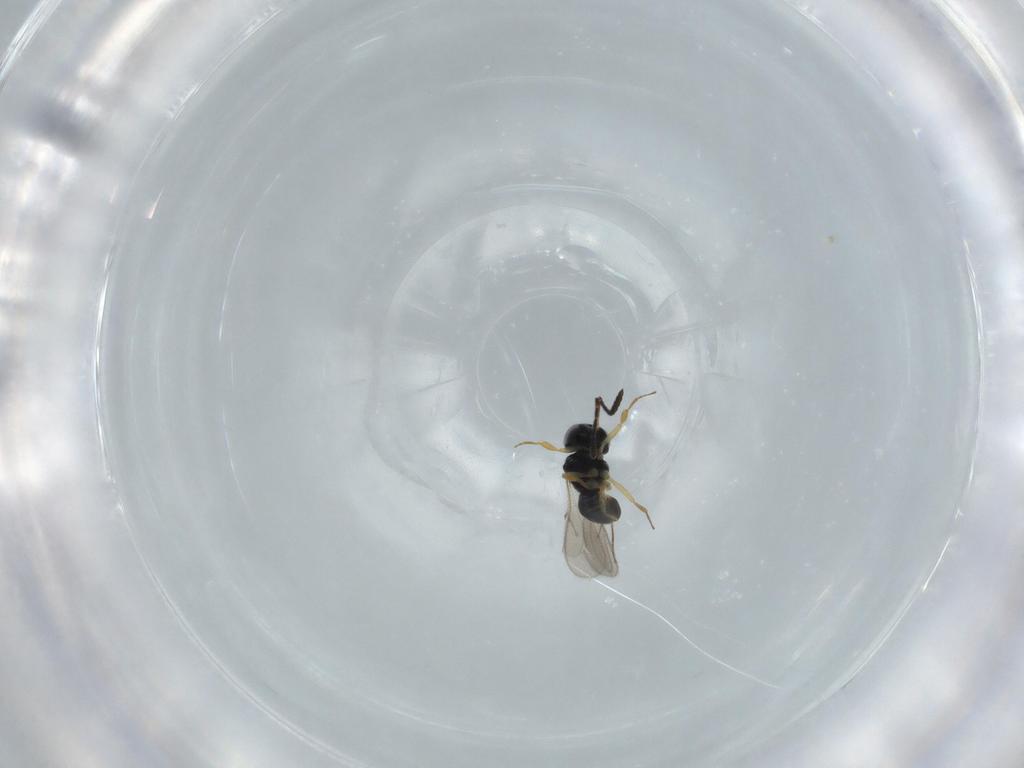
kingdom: Animalia
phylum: Arthropoda
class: Insecta
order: Hymenoptera
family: Scelionidae
